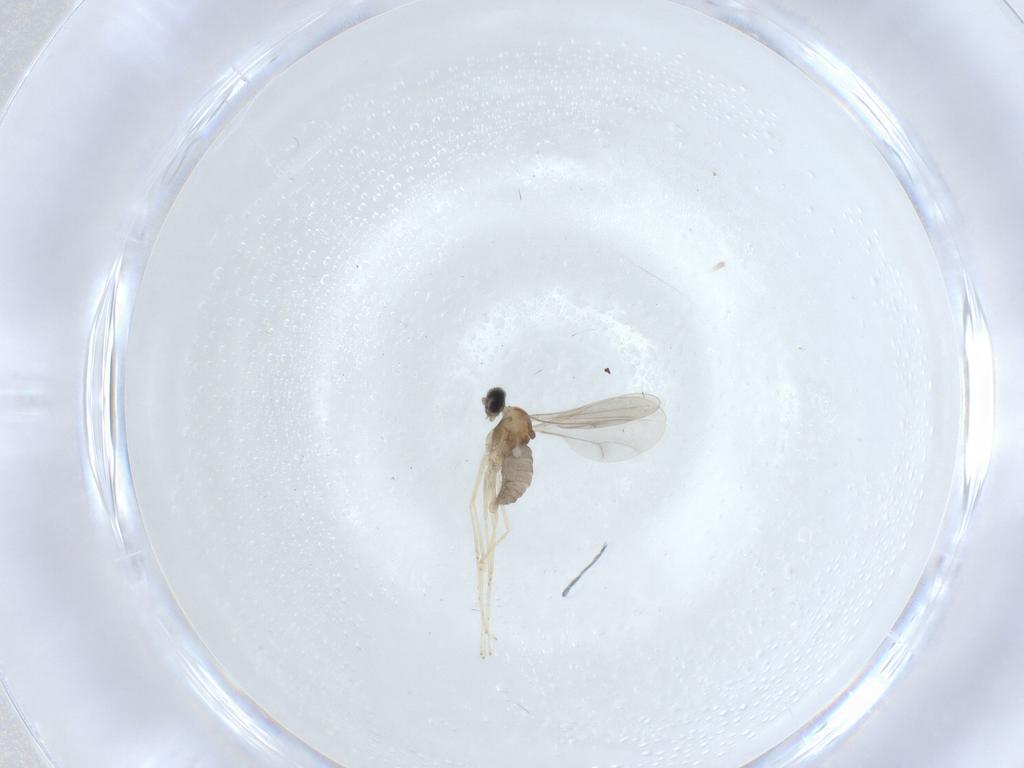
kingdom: Animalia
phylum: Arthropoda
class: Insecta
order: Diptera
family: Cecidomyiidae
